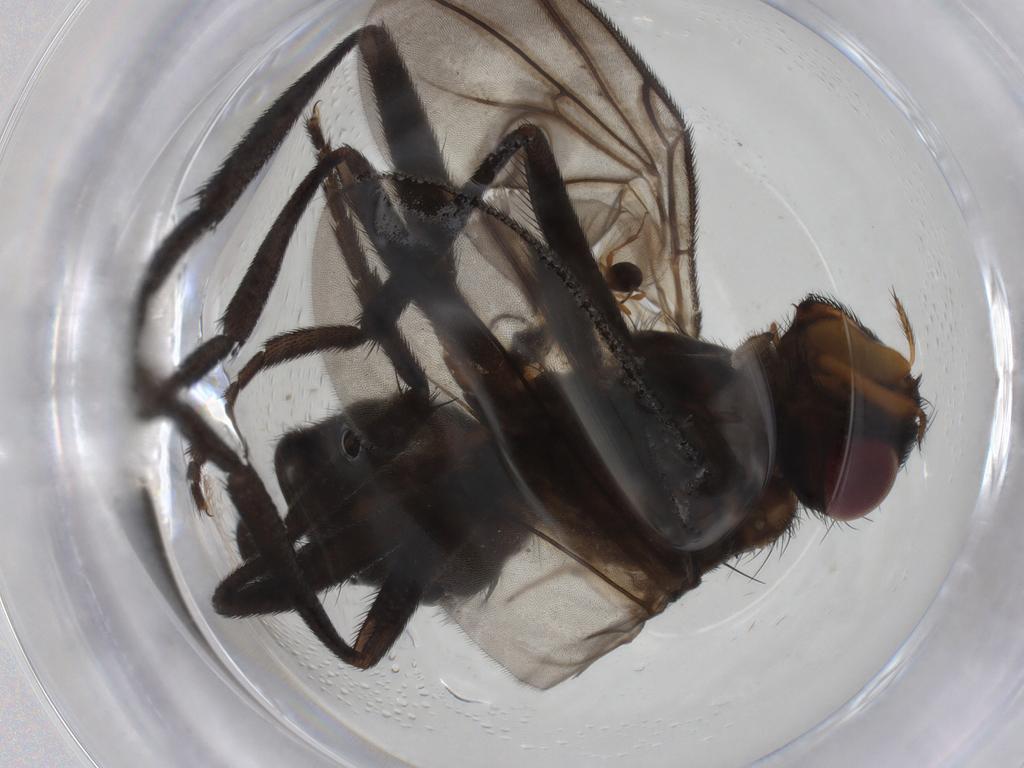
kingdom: Animalia
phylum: Arthropoda
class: Insecta
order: Diptera
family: Calliphoridae
